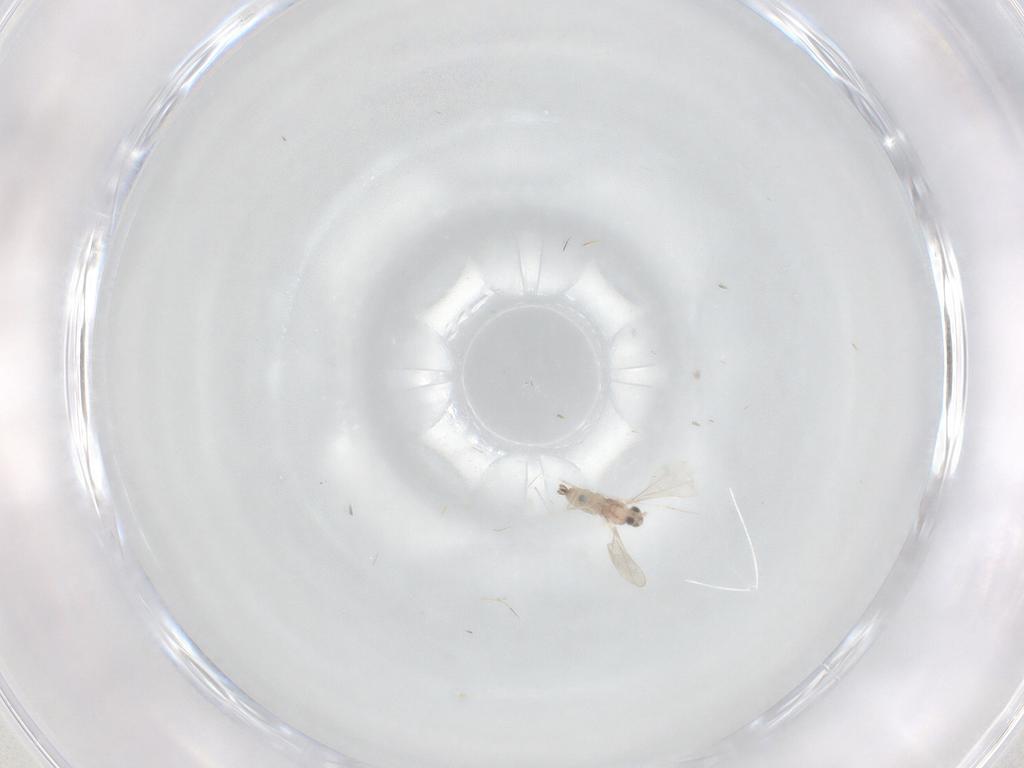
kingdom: Animalia
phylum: Arthropoda
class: Insecta
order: Diptera
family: Cecidomyiidae
